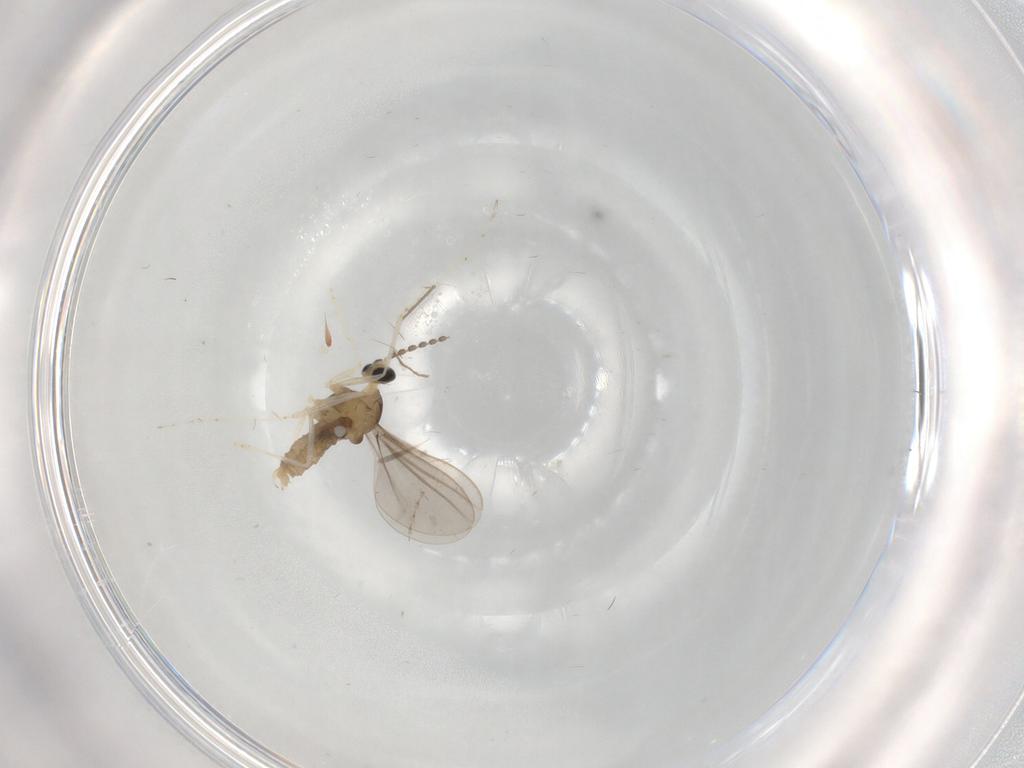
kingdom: Animalia
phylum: Arthropoda
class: Insecta
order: Diptera
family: Cecidomyiidae
